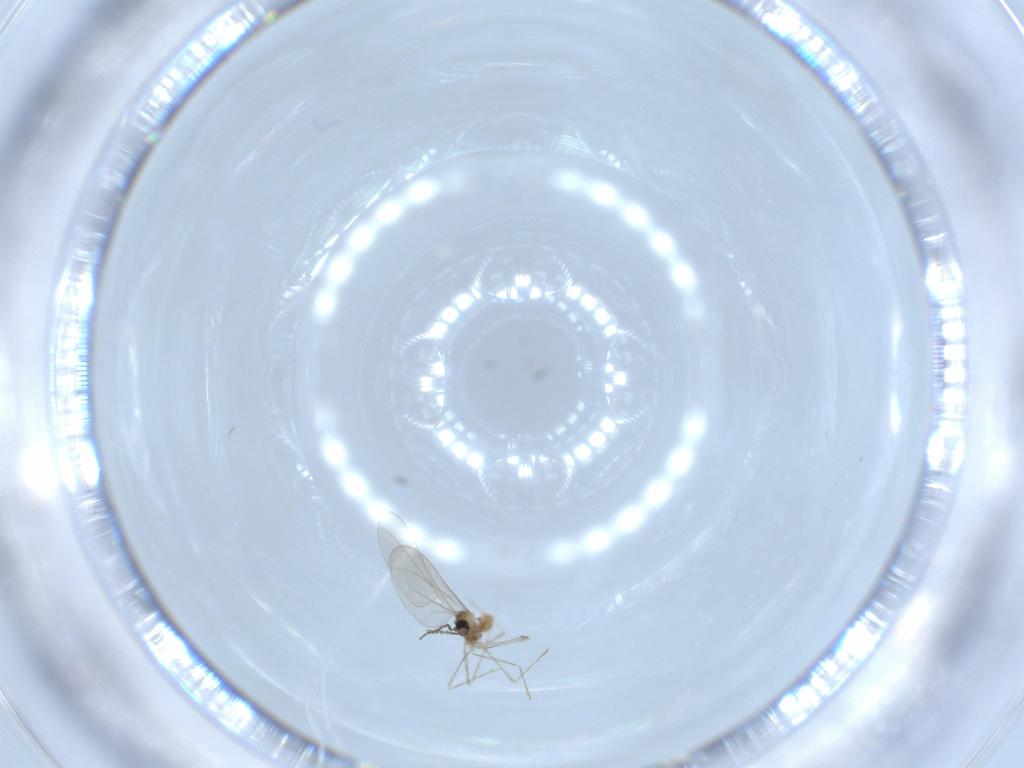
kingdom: Animalia
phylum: Arthropoda
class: Insecta
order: Diptera
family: Cecidomyiidae
